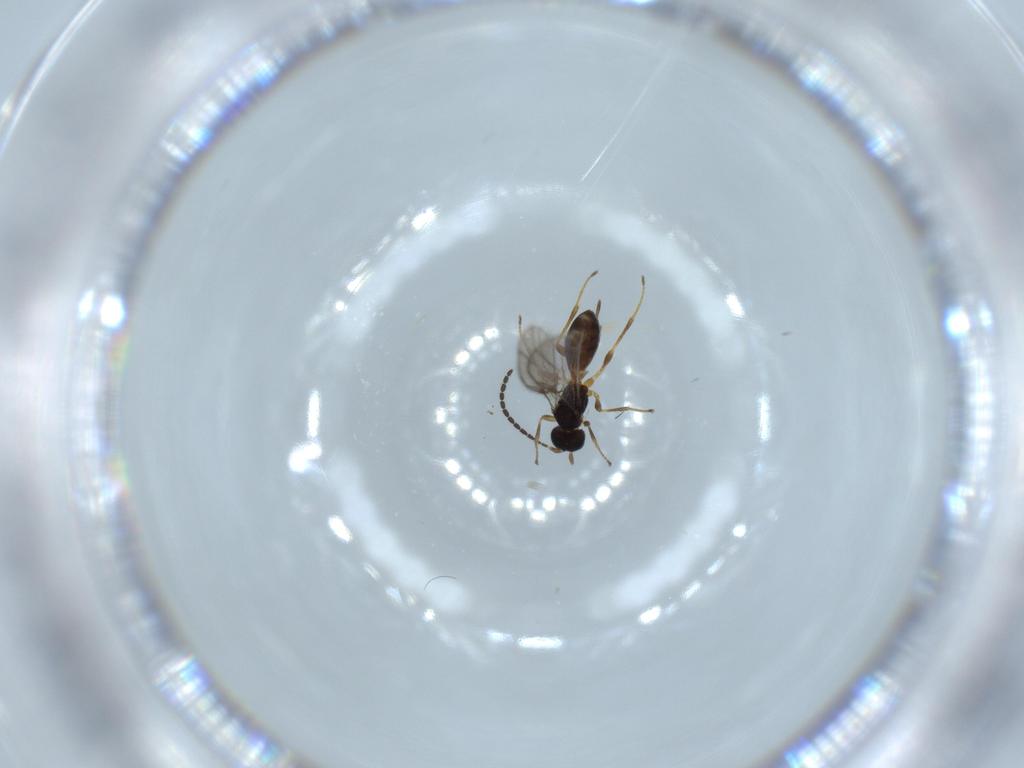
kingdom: Animalia
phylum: Arthropoda
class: Insecta
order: Hymenoptera
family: Braconidae
